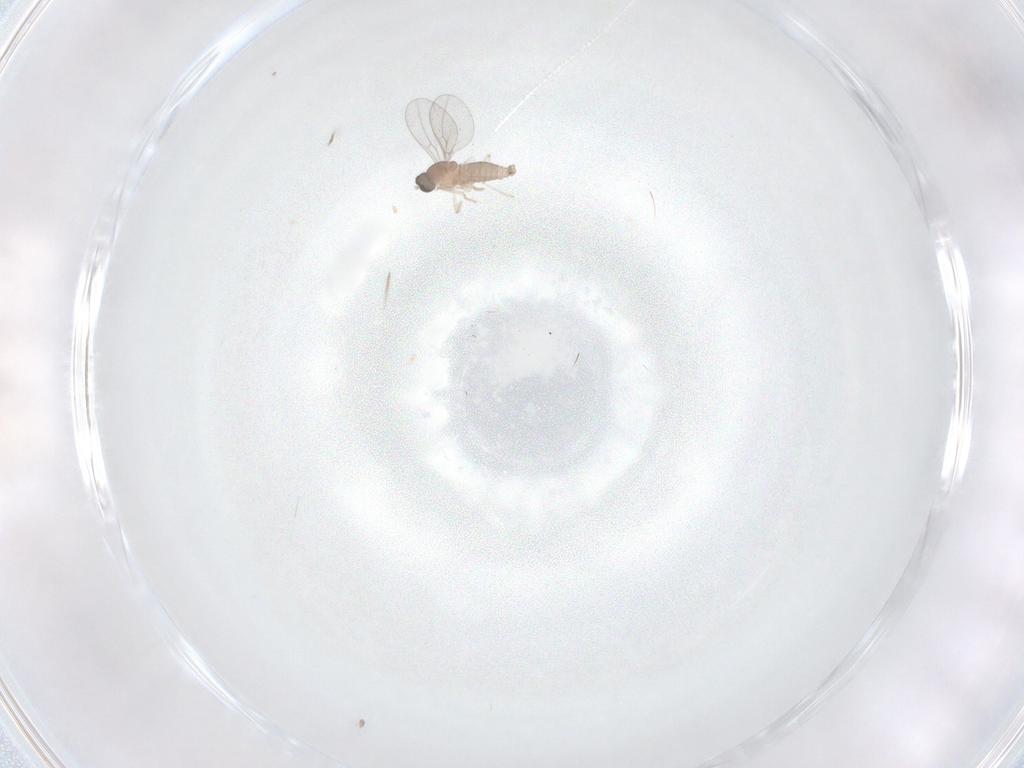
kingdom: Animalia
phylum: Arthropoda
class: Insecta
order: Diptera
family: Cecidomyiidae
